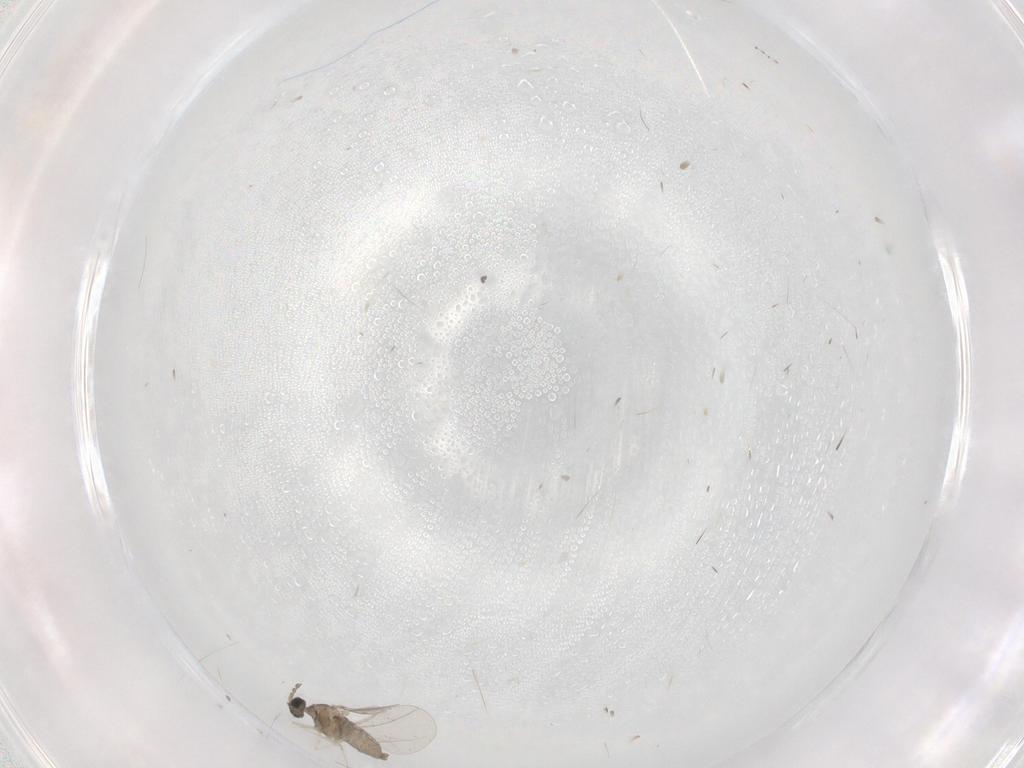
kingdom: Animalia
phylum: Arthropoda
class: Insecta
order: Diptera
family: Cecidomyiidae
